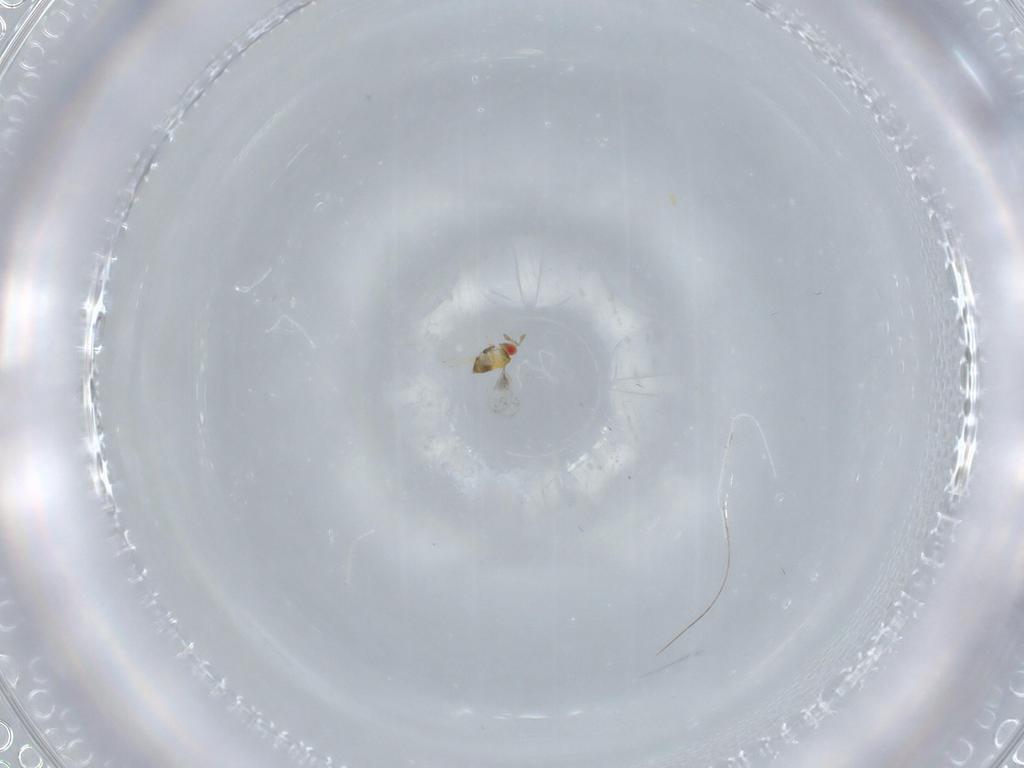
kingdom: Animalia
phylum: Arthropoda
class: Insecta
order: Hymenoptera
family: Trichogrammatidae
